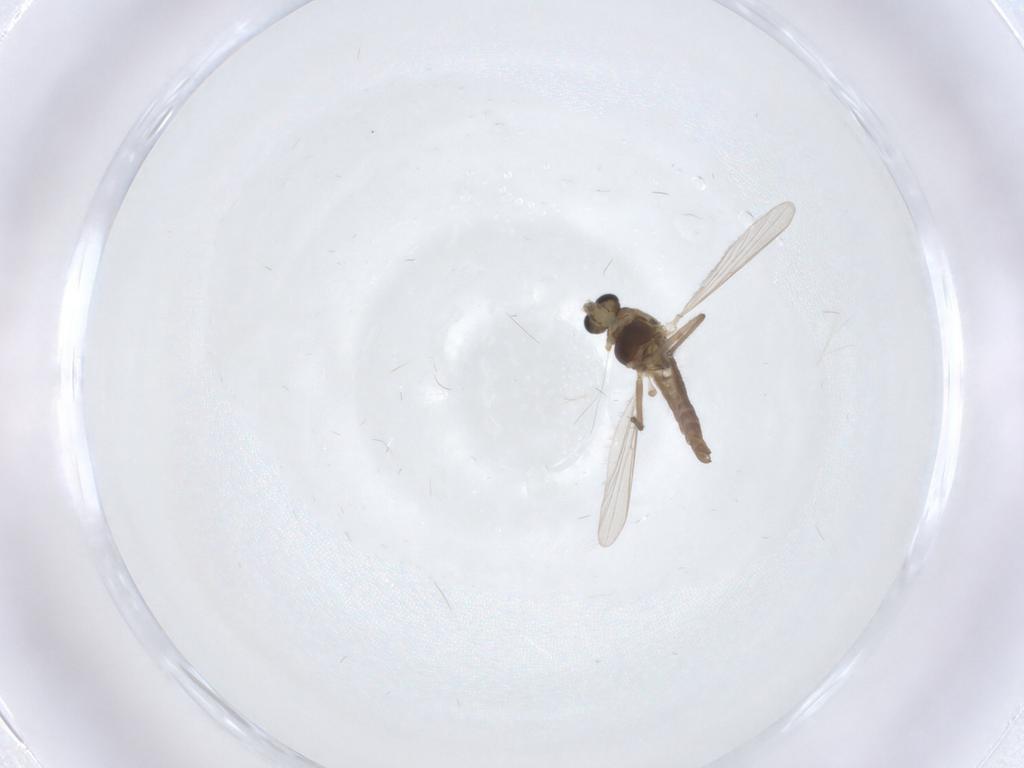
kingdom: Animalia
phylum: Arthropoda
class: Insecta
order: Diptera
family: Chironomidae
